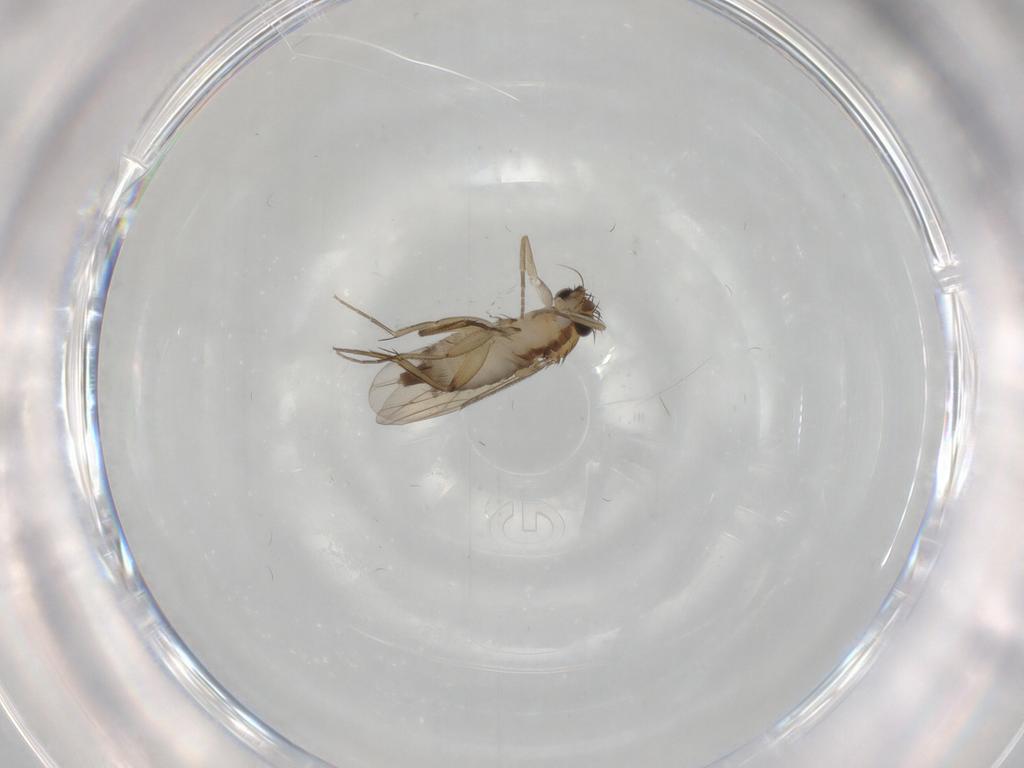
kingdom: Animalia
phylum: Arthropoda
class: Insecta
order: Diptera
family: Phoridae
